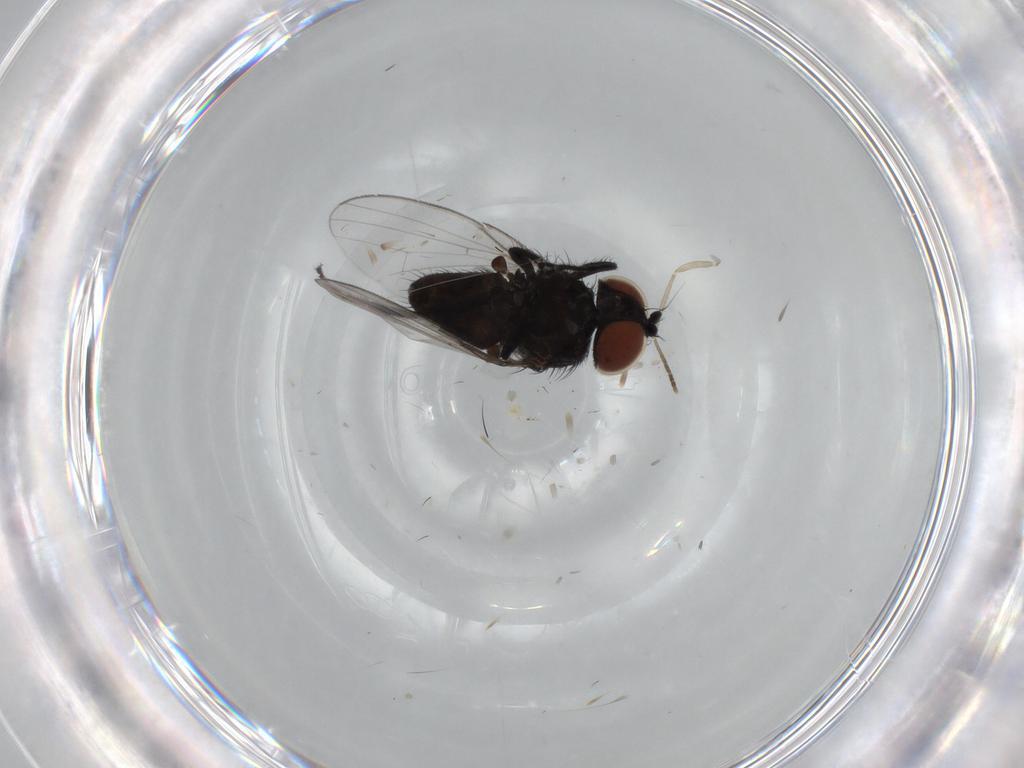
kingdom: Animalia
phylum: Arthropoda
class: Insecta
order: Diptera
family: Milichiidae
